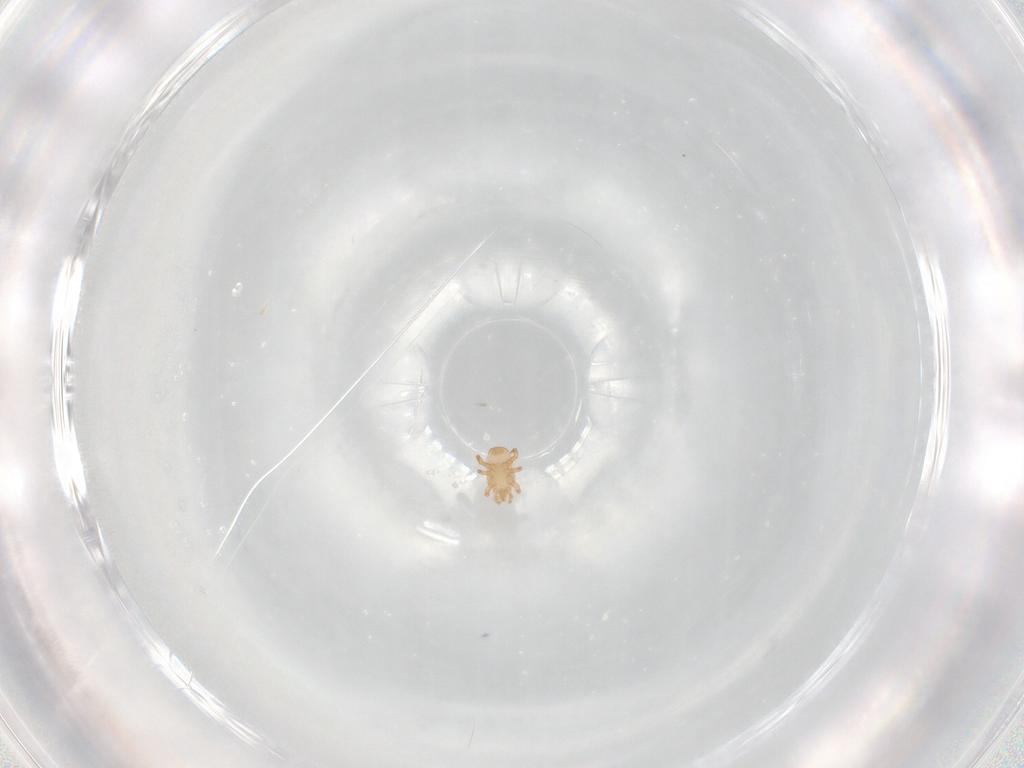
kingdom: Animalia
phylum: Arthropoda
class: Arachnida
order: Mesostigmata
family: Halolaelapidae
